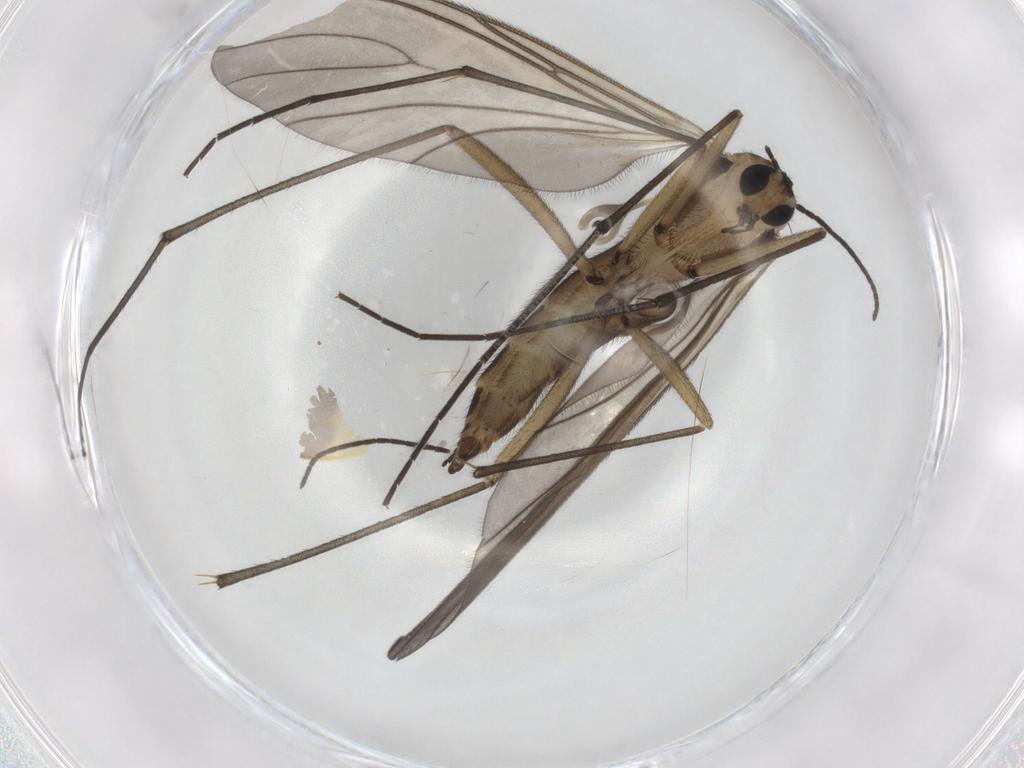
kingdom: Animalia
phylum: Arthropoda
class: Insecta
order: Diptera
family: Sciaridae
